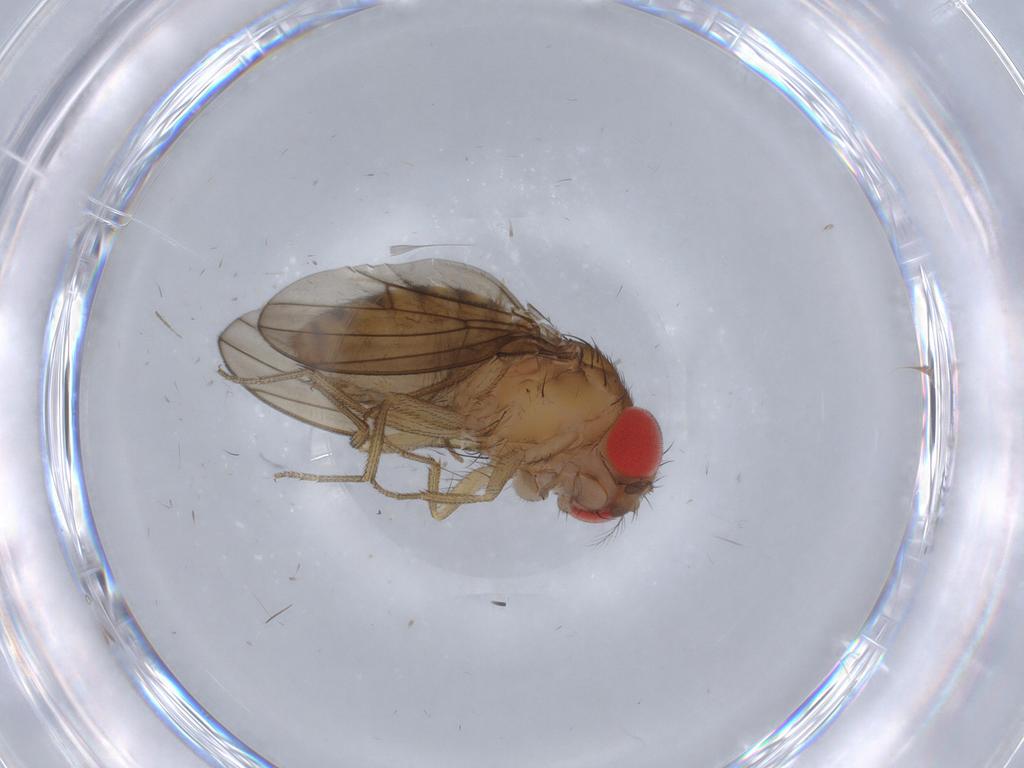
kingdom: Animalia
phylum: Arthropoda
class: Insecta
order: Diptera
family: Drosophilidae
